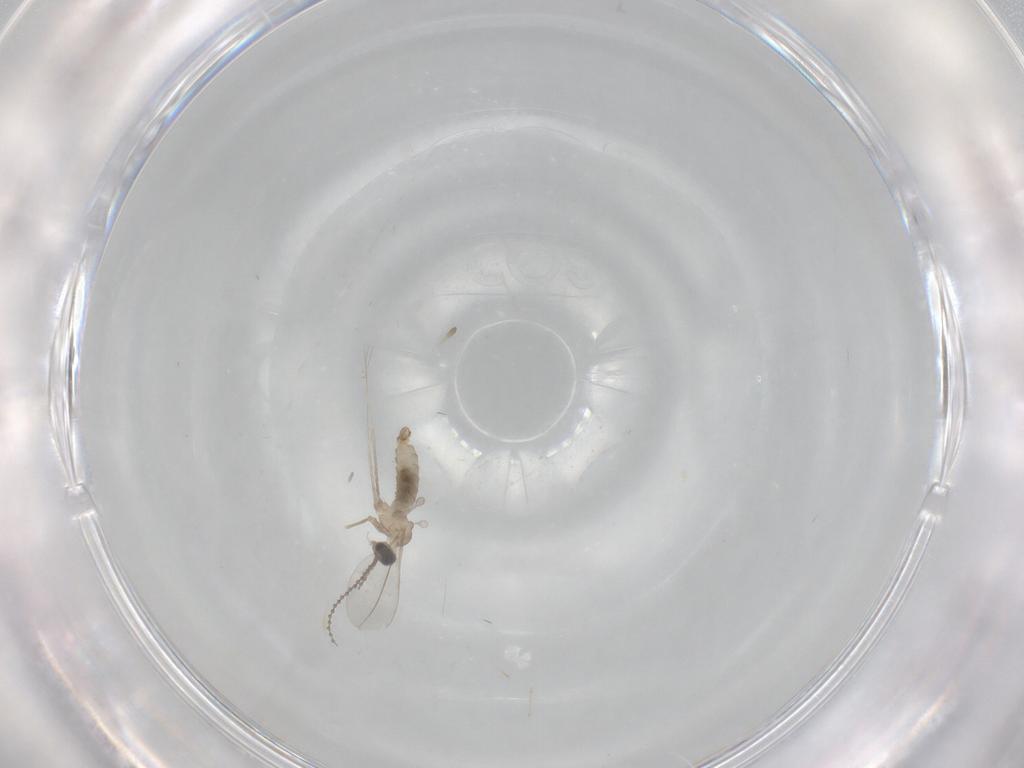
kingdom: Animalia
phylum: Arthropoda
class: Insecta
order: Diptera
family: Cecidomyiidae
